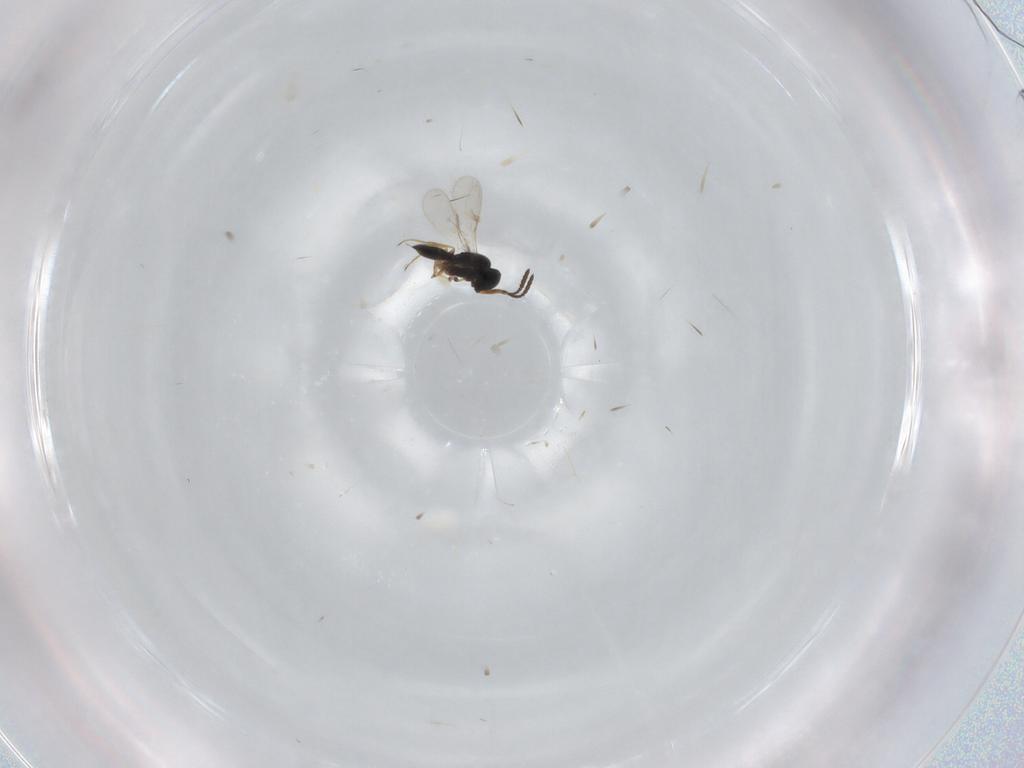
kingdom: Animalia
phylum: Arthropoda
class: Insecta
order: Hymenoptera
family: Scelionidae
